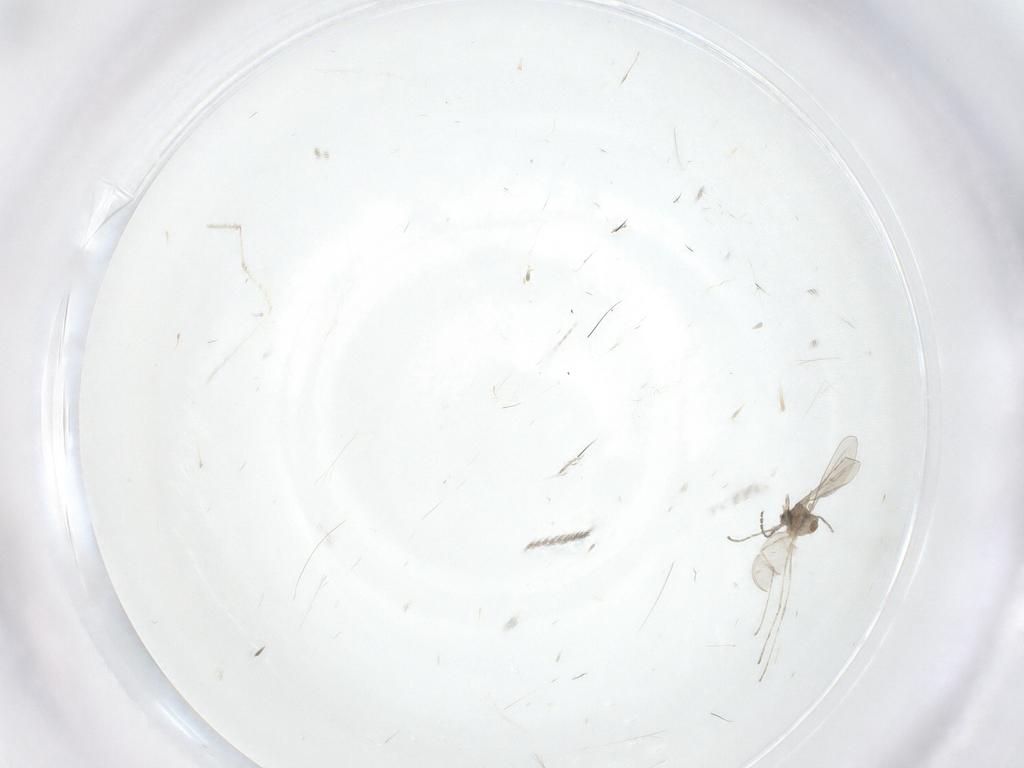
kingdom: Animalia
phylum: Arthropoda
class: Insecta
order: Diptera
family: Cecidomyiidae
